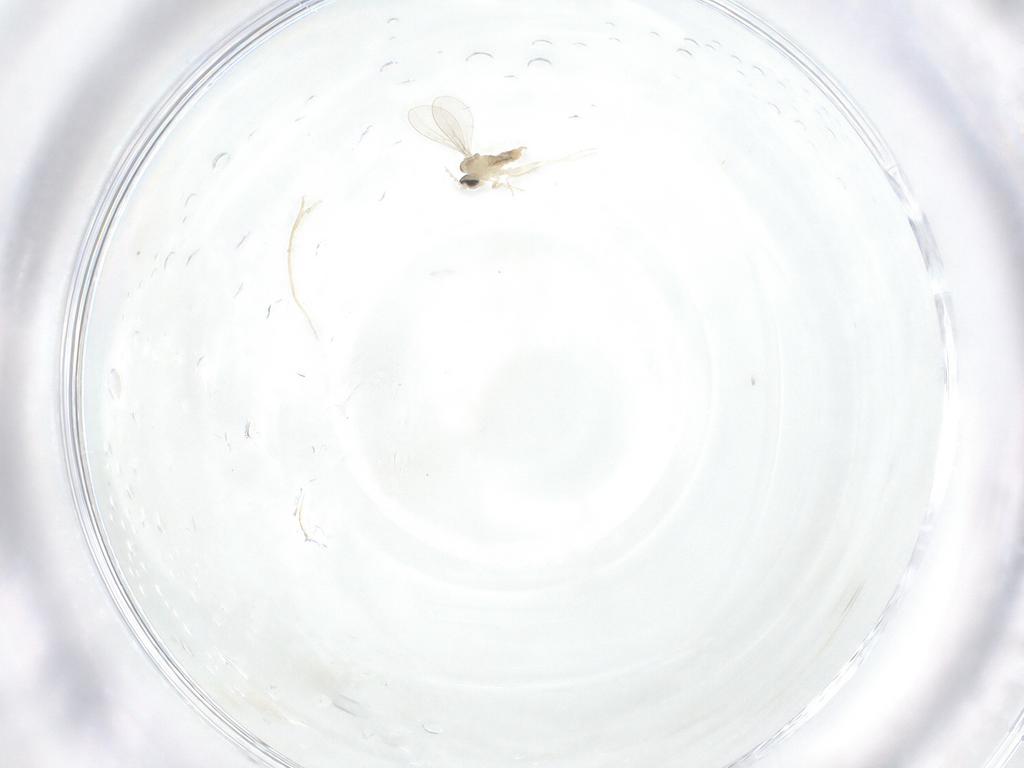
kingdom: Animalia
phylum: Arthropoda
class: Insecta
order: Diptera
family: Cecidomyiidae
